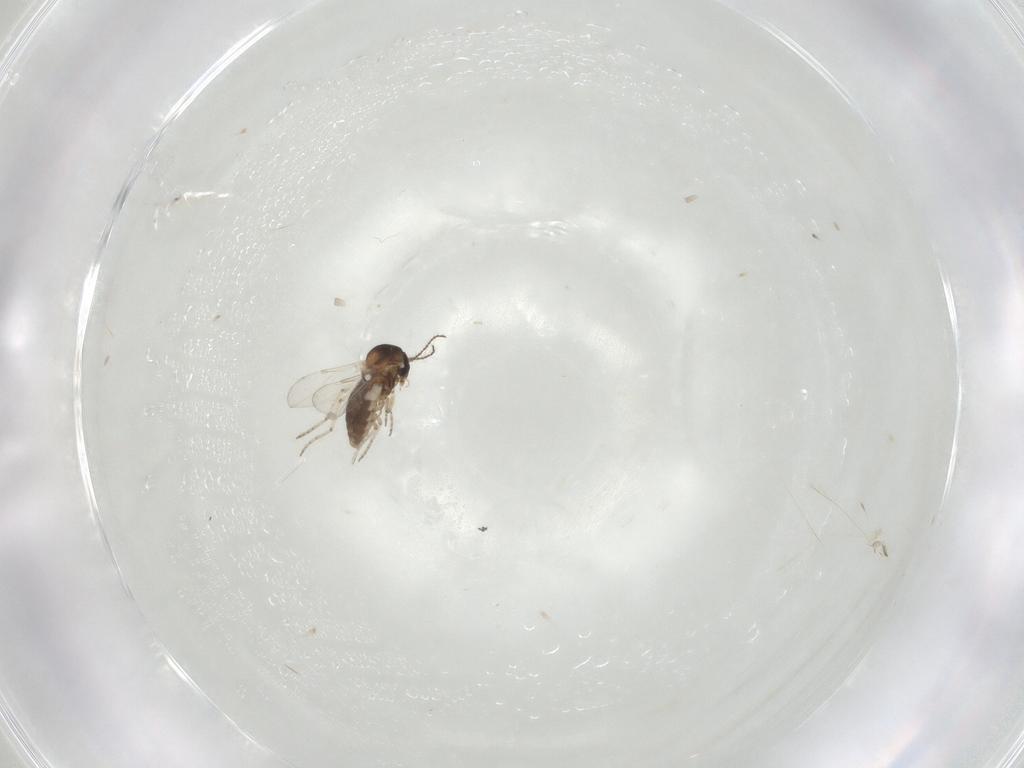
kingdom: Animalia
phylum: Arthropoda
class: Insecta
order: Diptera
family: Ceratopogonidae
